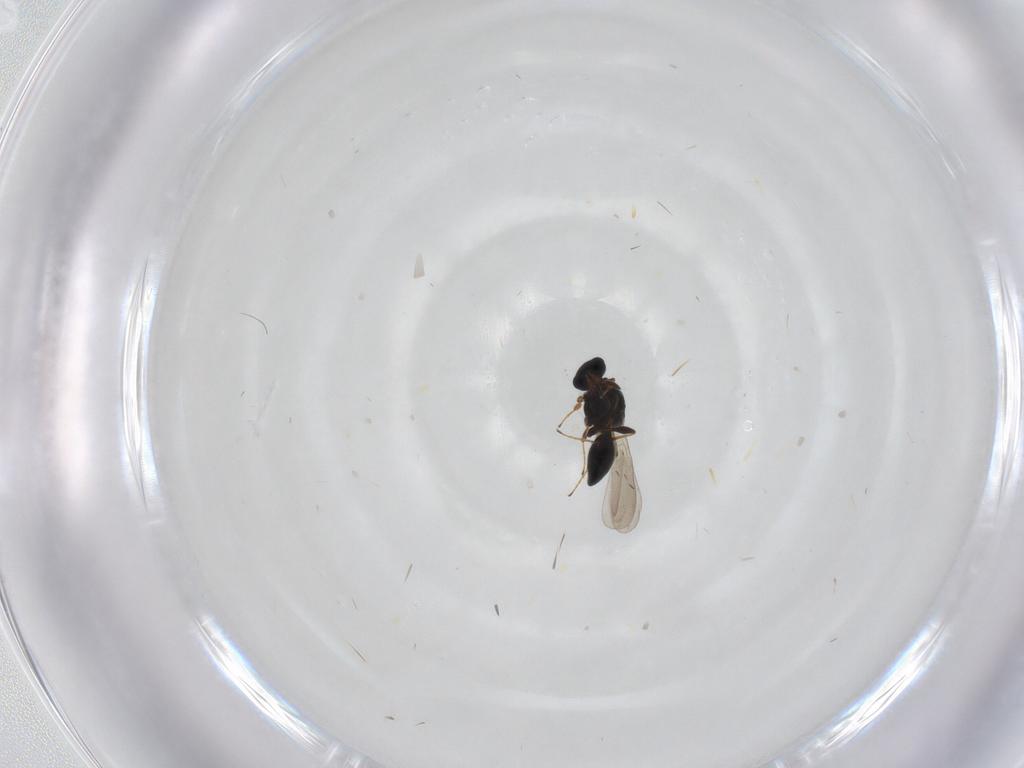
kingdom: Animalia
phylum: Arthropoda
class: Insecta
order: Hymenoptera
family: Platygastridae
